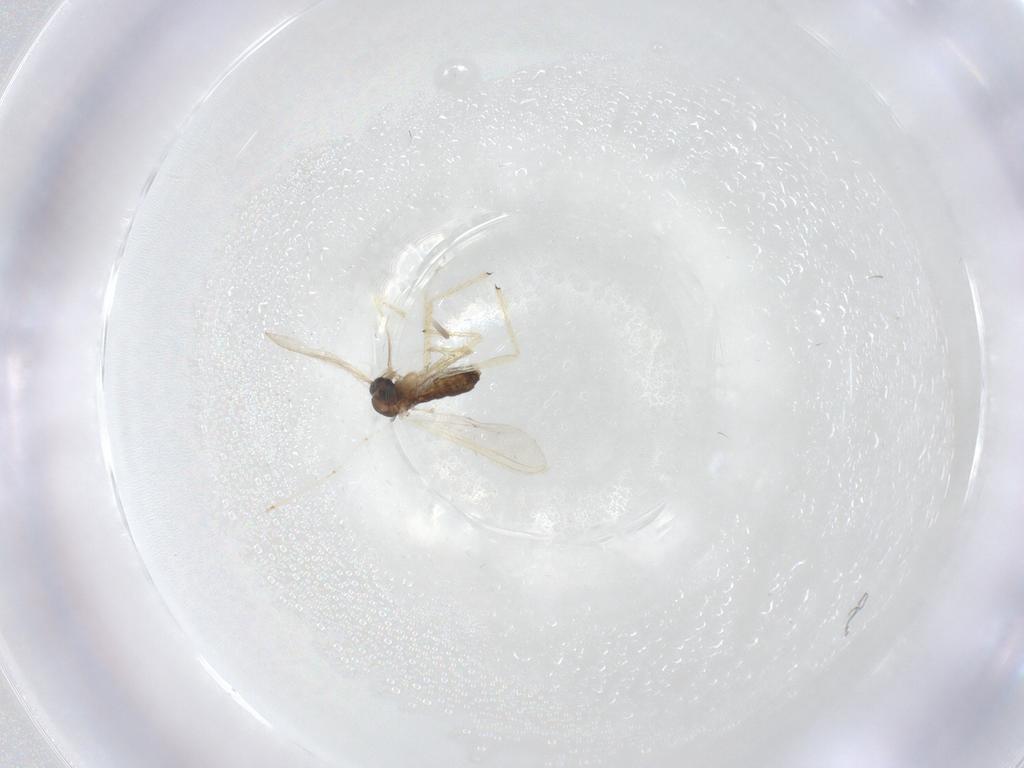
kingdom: Animalia
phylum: Arthropoda
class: Insecta
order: Diptera
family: Chironomidae
